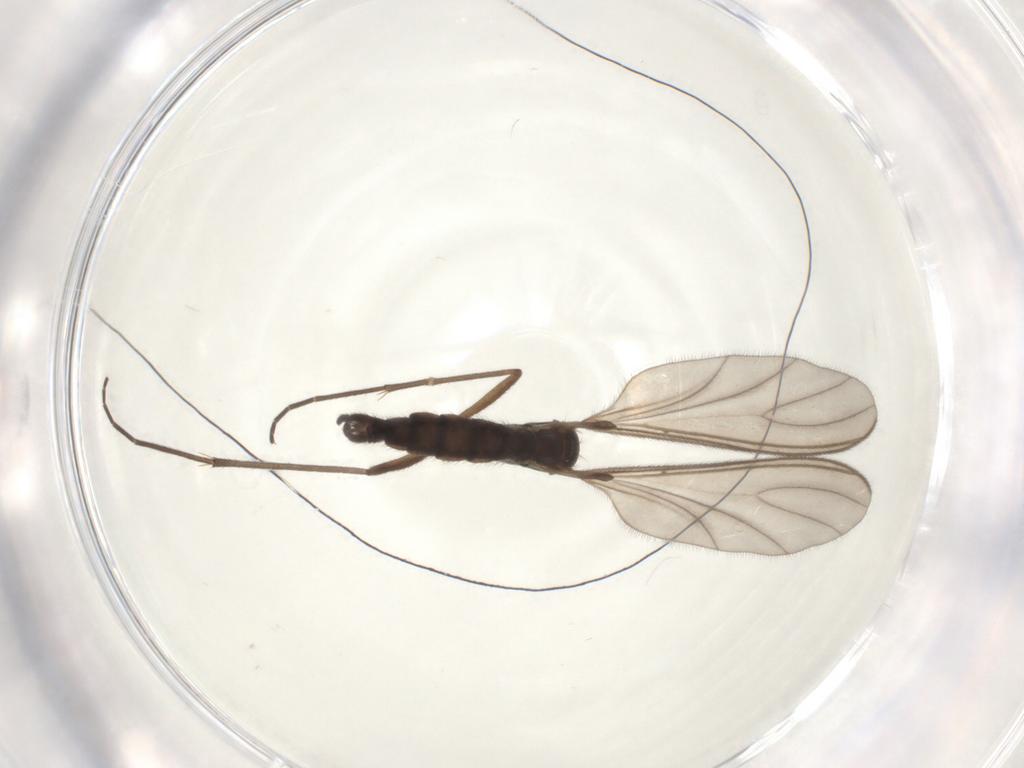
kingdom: Animalia
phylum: Arthropoda
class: Insecta
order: Diptera
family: Sciaridae
